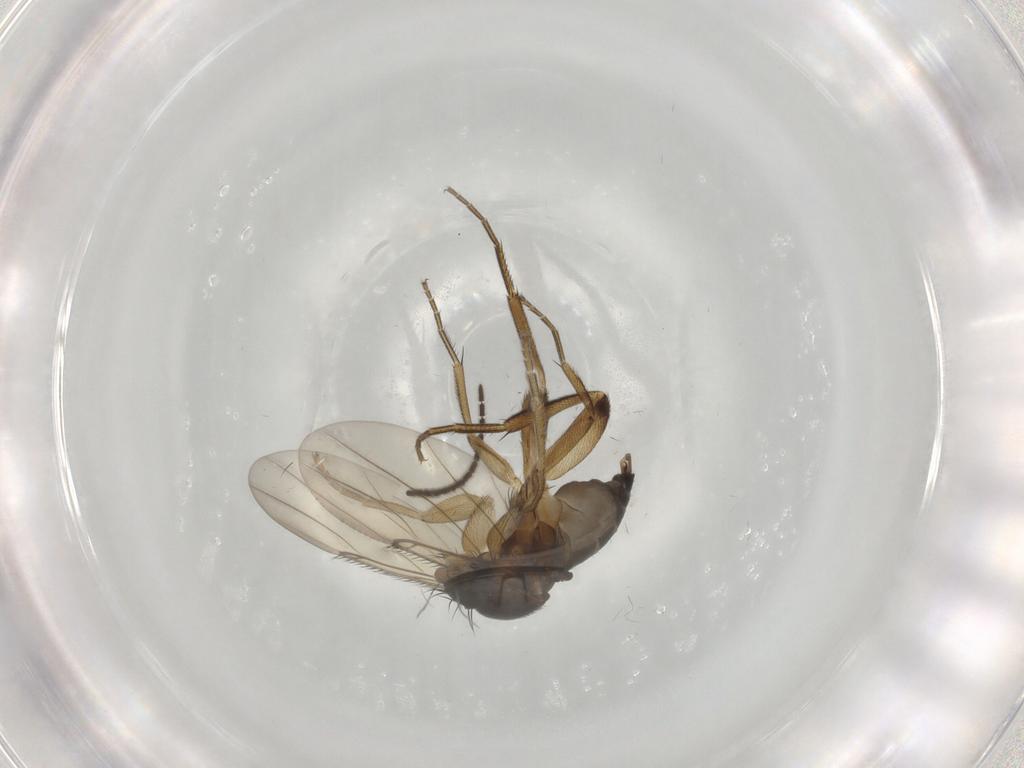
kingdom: Animalia
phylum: Arthropoda
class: Insecta
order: Diptera
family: Phoridae
